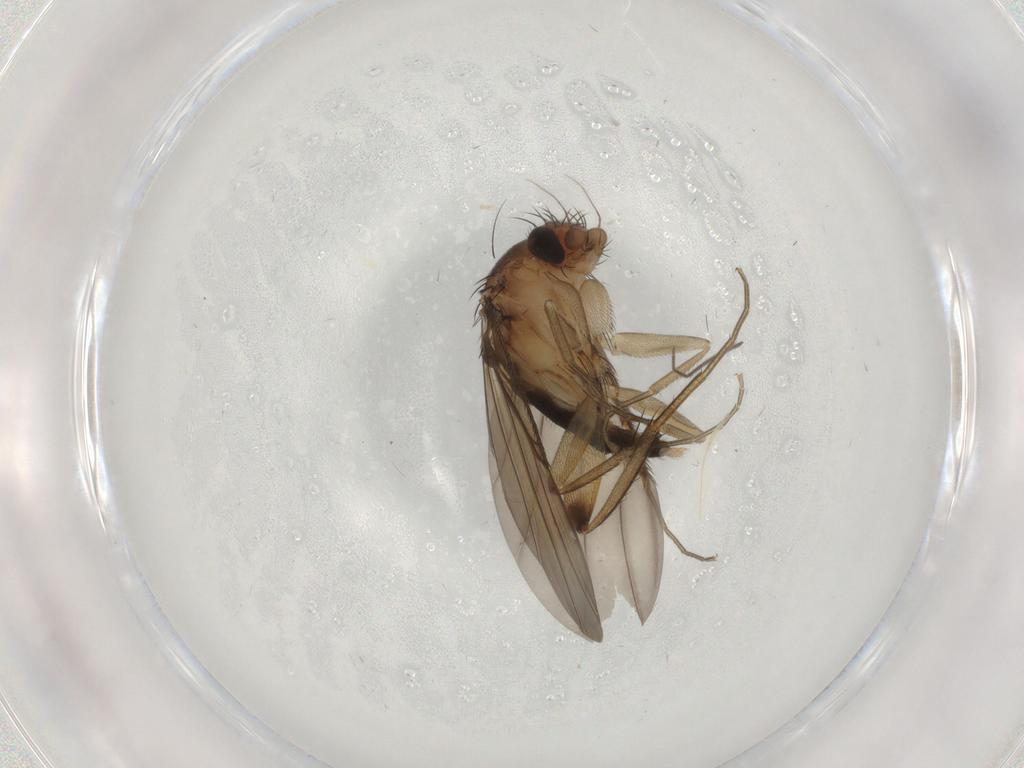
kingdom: Animalia
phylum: Arthropoda
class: Insecta
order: Diptera
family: Phoridae
